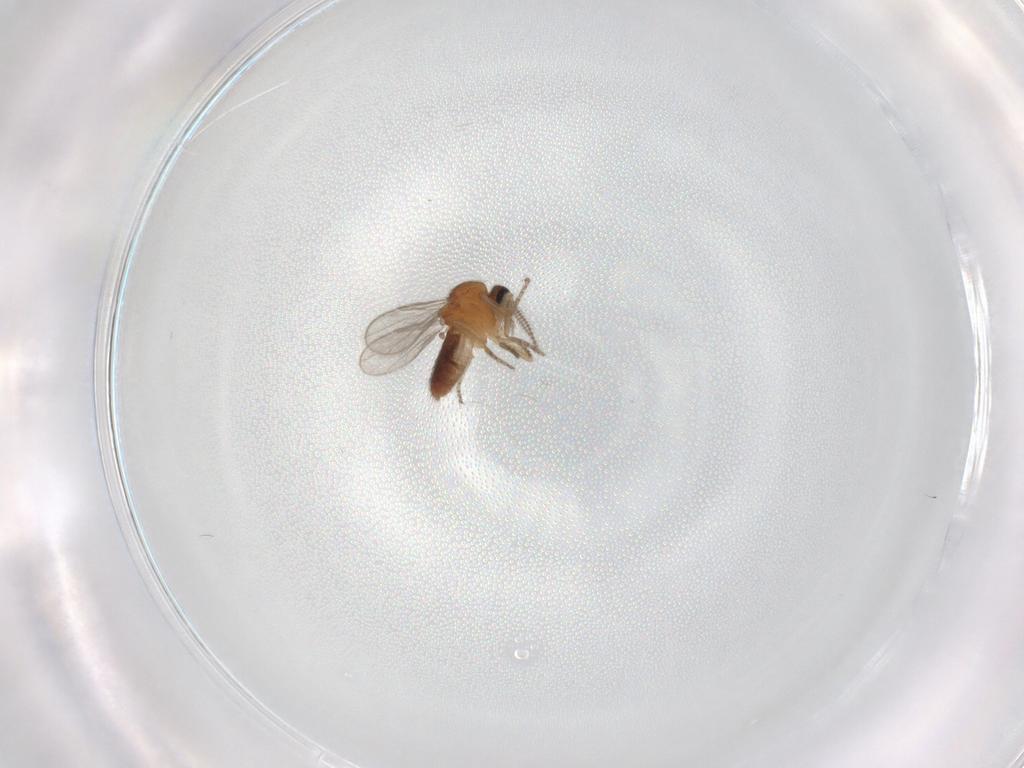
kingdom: Animalia
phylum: Arthropoda
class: Insecta
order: Diptera
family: Ceratopogonidae
